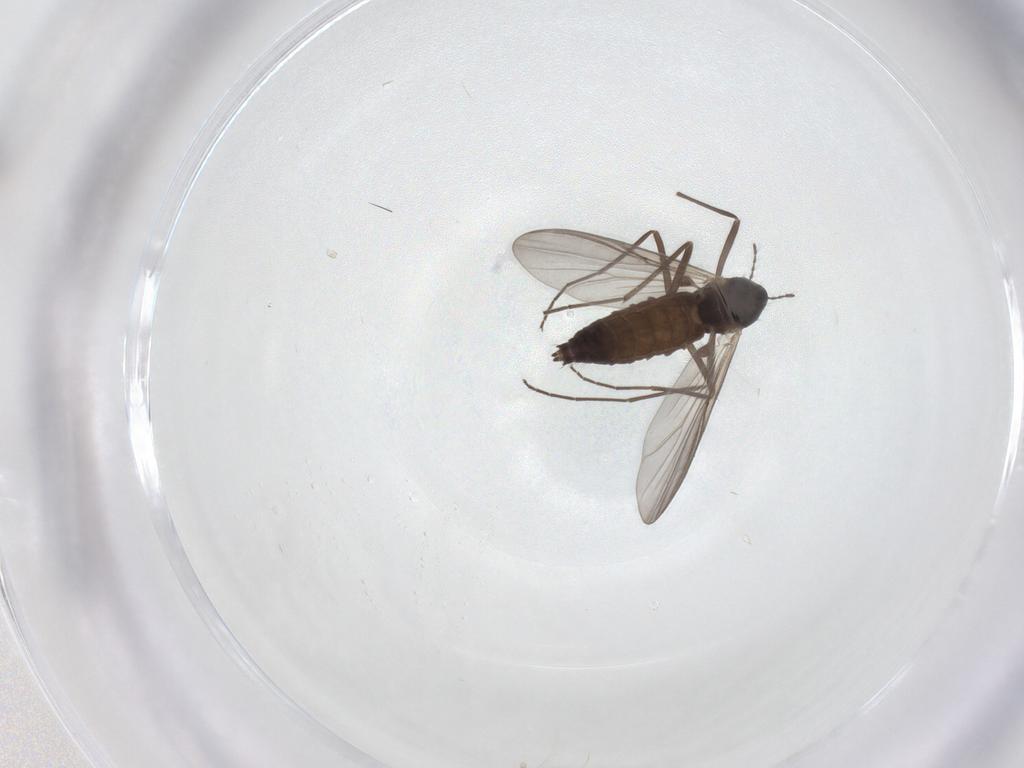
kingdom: Animalia
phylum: Arthropoda
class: Insecta
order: Diptera
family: Chironomidae
